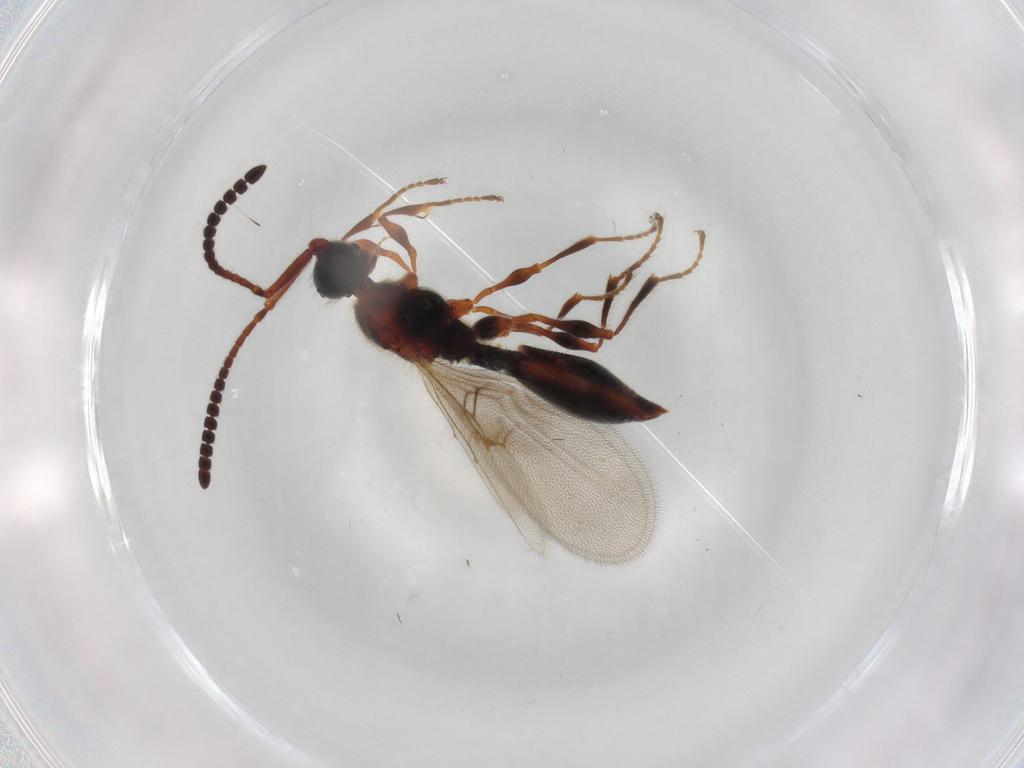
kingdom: Animalia
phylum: Arthropoda
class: Insecta
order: Hymenoptera
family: Diapriidae
